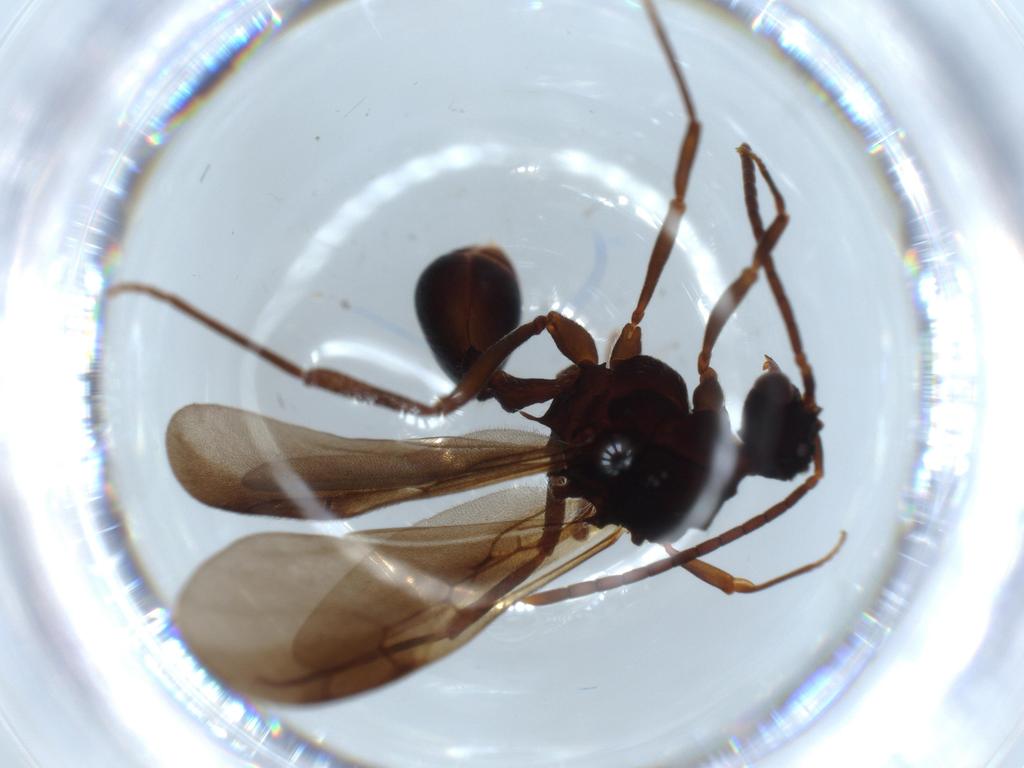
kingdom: Animalia
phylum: Arthropoda
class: Insecta
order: Hymenoptera
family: Formicidae
